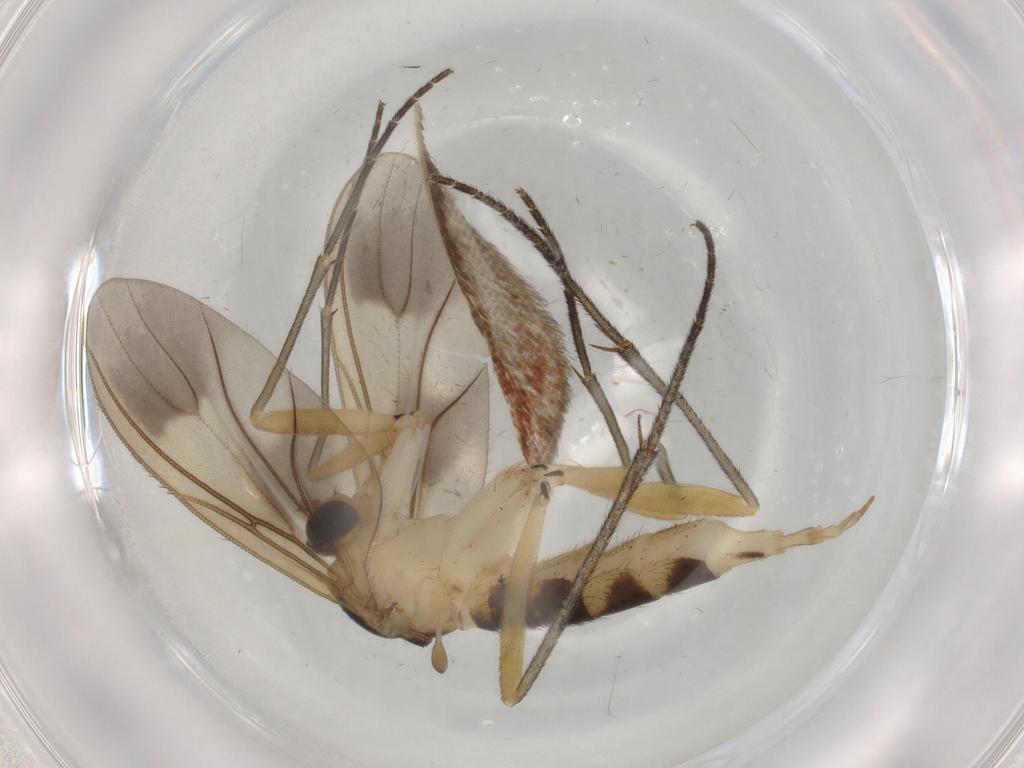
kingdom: Animalia
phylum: Arthropoda
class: Insecta
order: Diptera
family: Sciaridae
